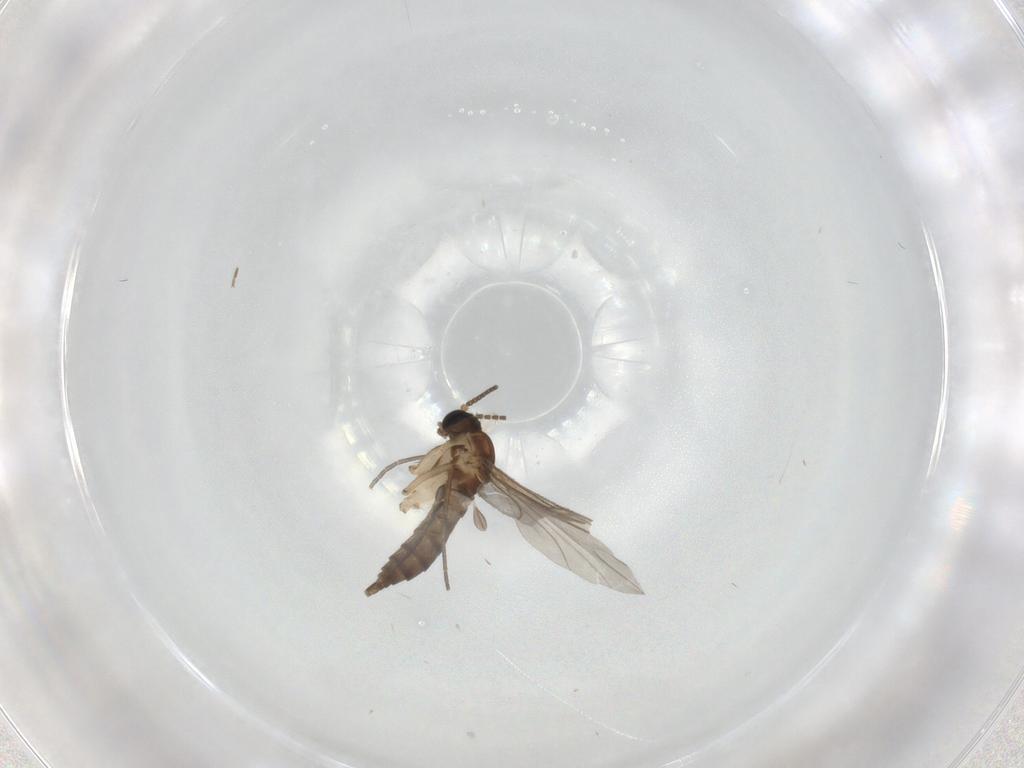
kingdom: Animalia
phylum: Arthropoda
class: Insecta
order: Diptera
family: Chironomidae
